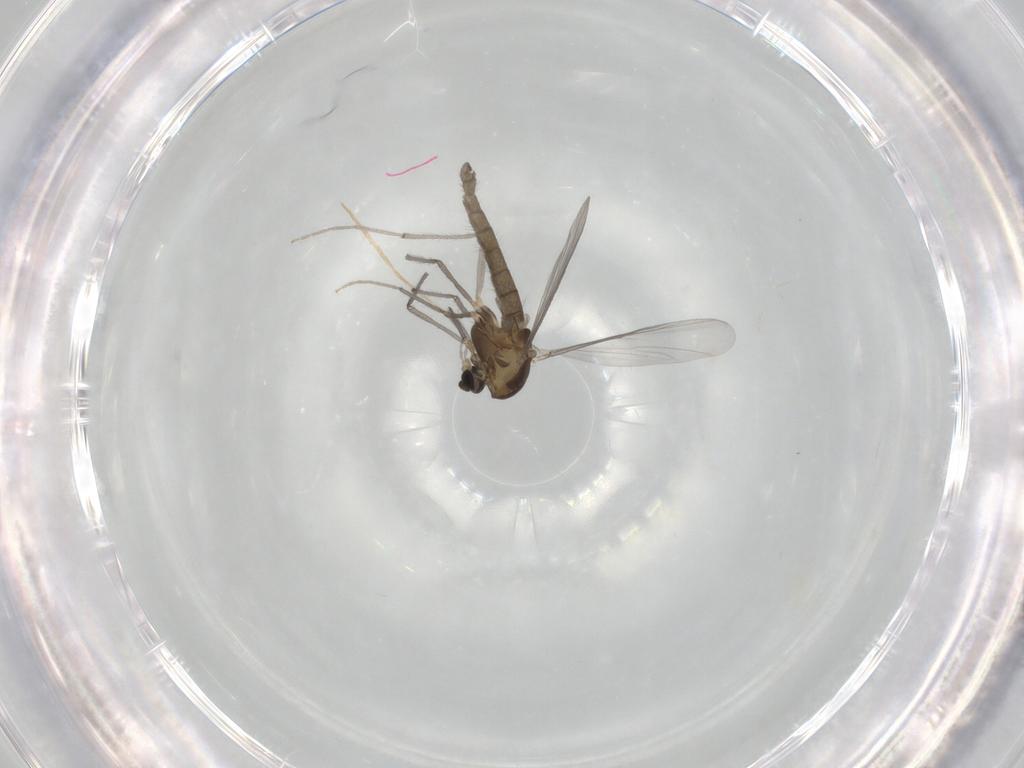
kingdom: Animalia
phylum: Arthropoda
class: Insecta
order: Diptera
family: Chironomidae
